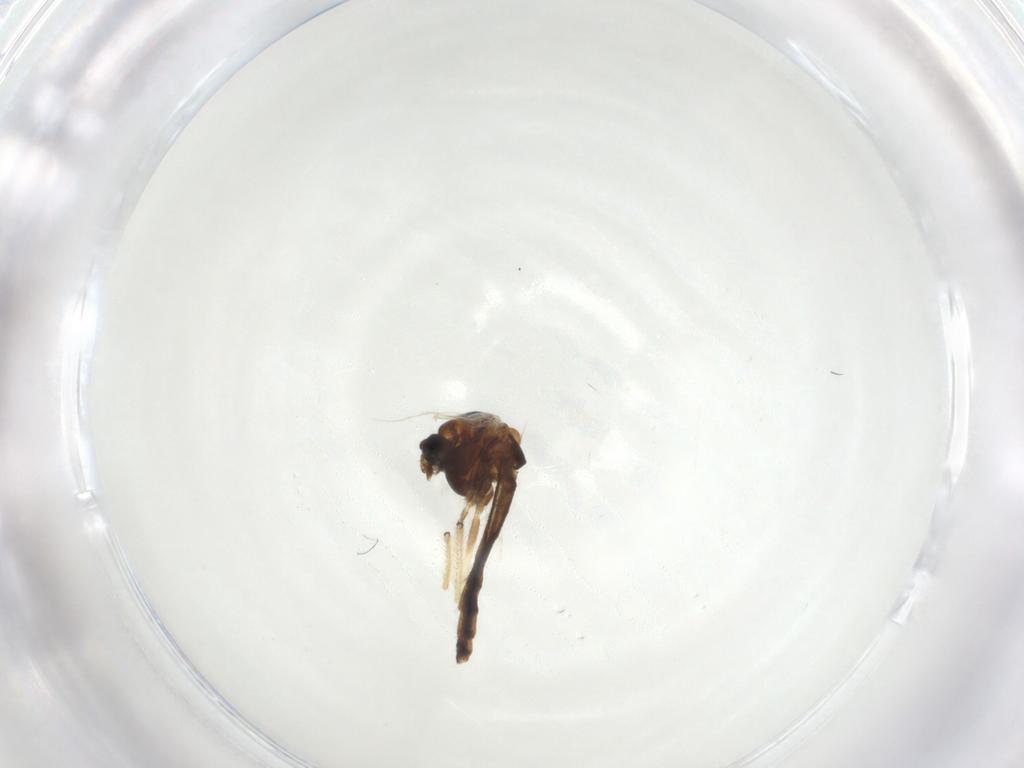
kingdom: Animalia
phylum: Arthropoda
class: Insecta
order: Diptera
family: Chironomidae
